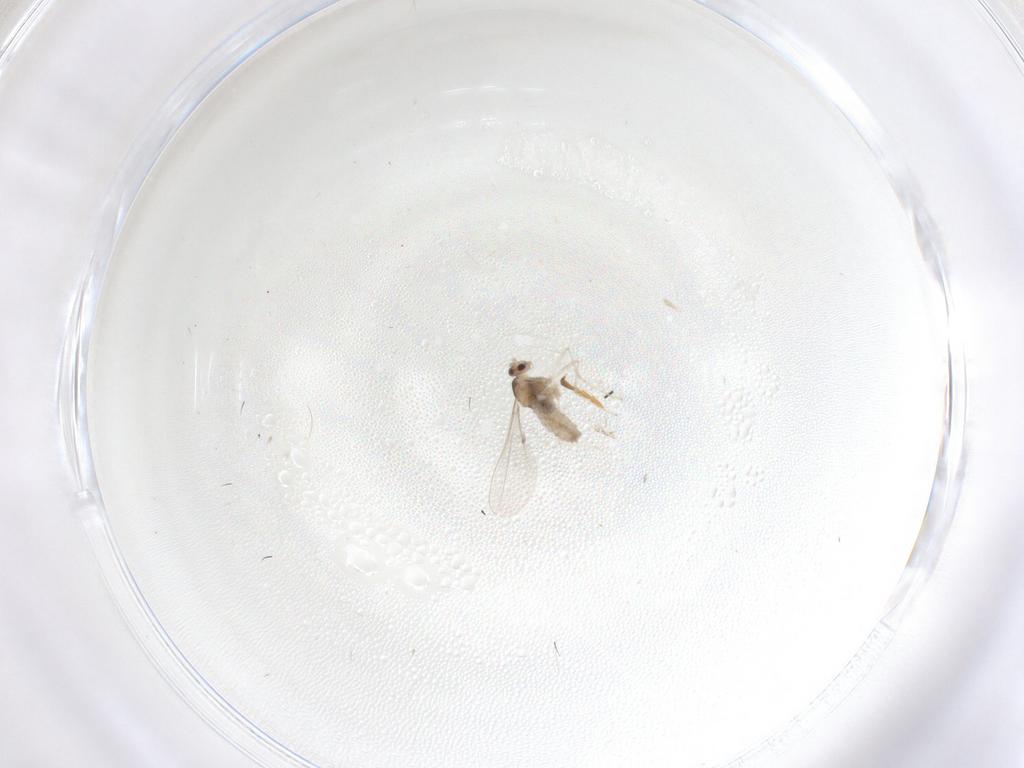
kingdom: Animalia
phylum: Arthropoda
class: Insecta
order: Diptera
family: Cecidomyiidae
